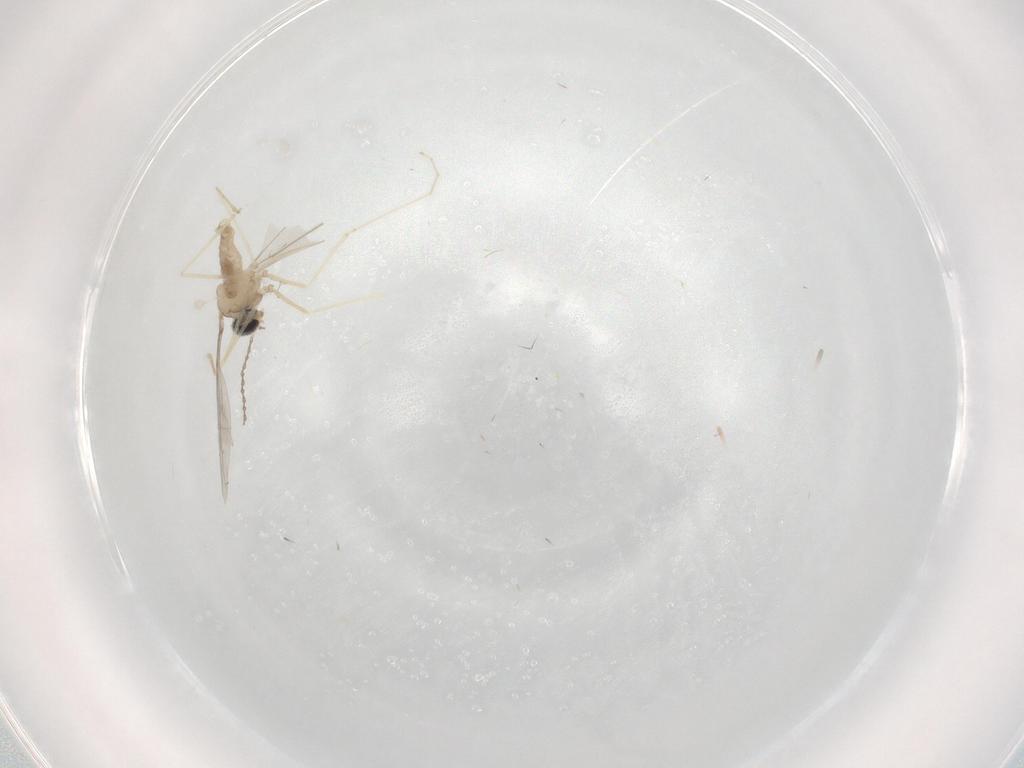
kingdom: Animalia
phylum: Arthropoda
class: Insecta
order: Diptera
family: Cecidomyiidae
